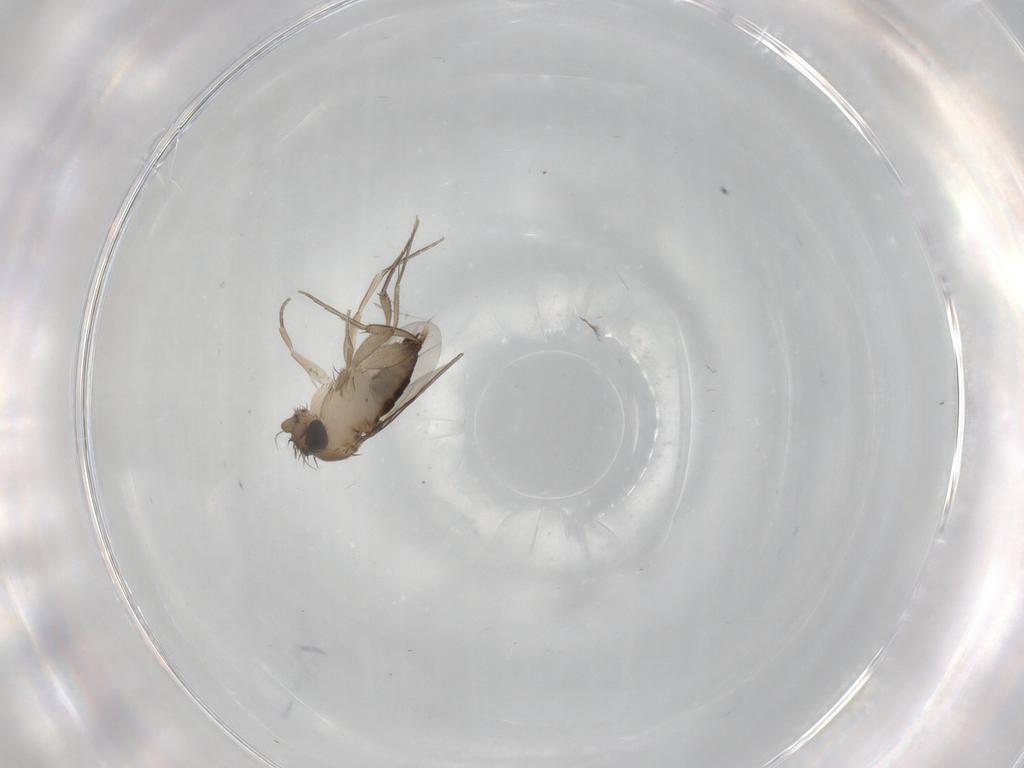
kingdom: Animalia
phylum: Arthropoda
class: Insecta
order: Diptera
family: Phoridae
